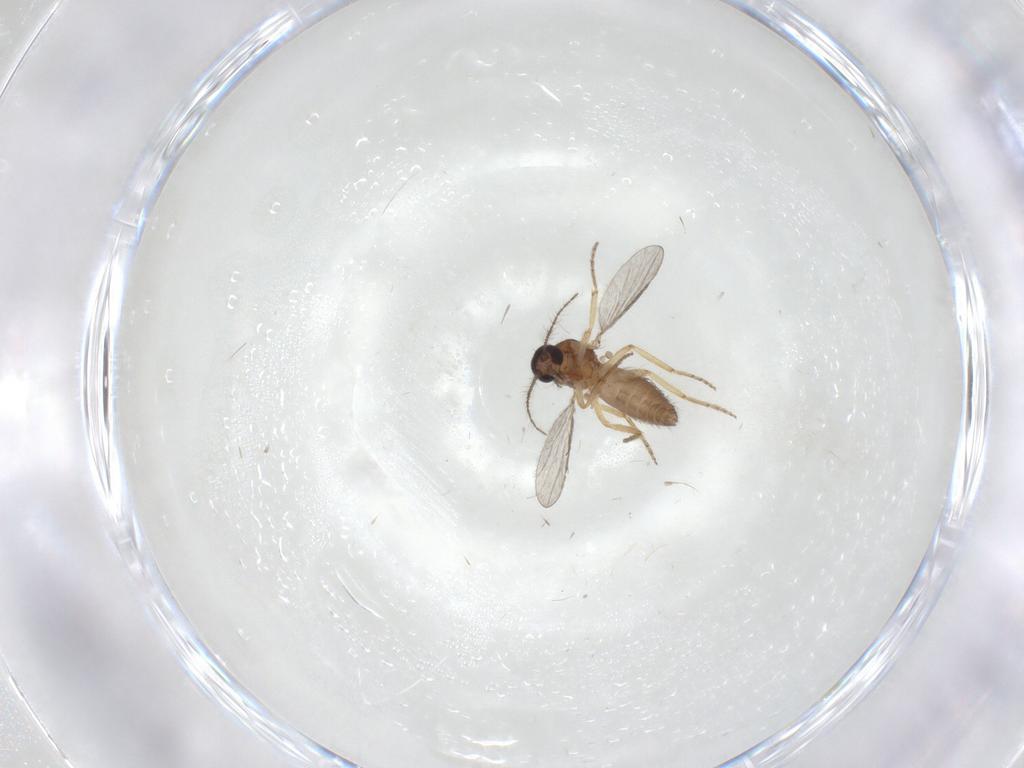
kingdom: Animalia
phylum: Arthropoda
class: Insecta
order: Diptera
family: Ceratopogonidae
